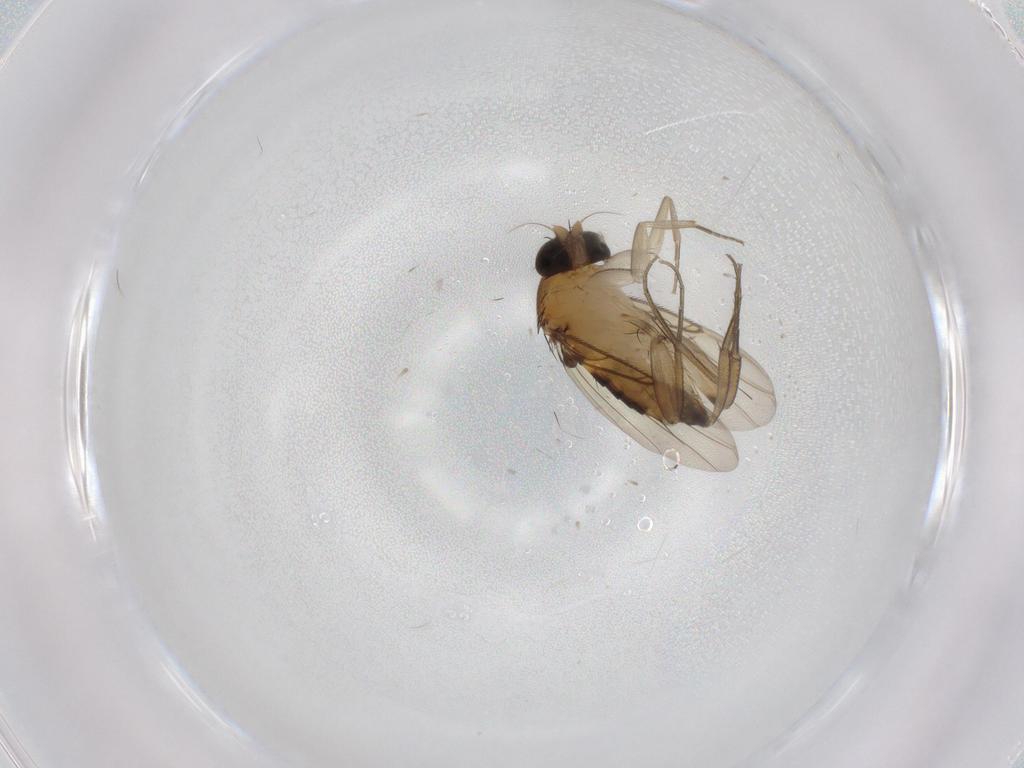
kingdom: Animalia
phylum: Arthropoda
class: Insecta
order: Diptera
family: Phoridae
